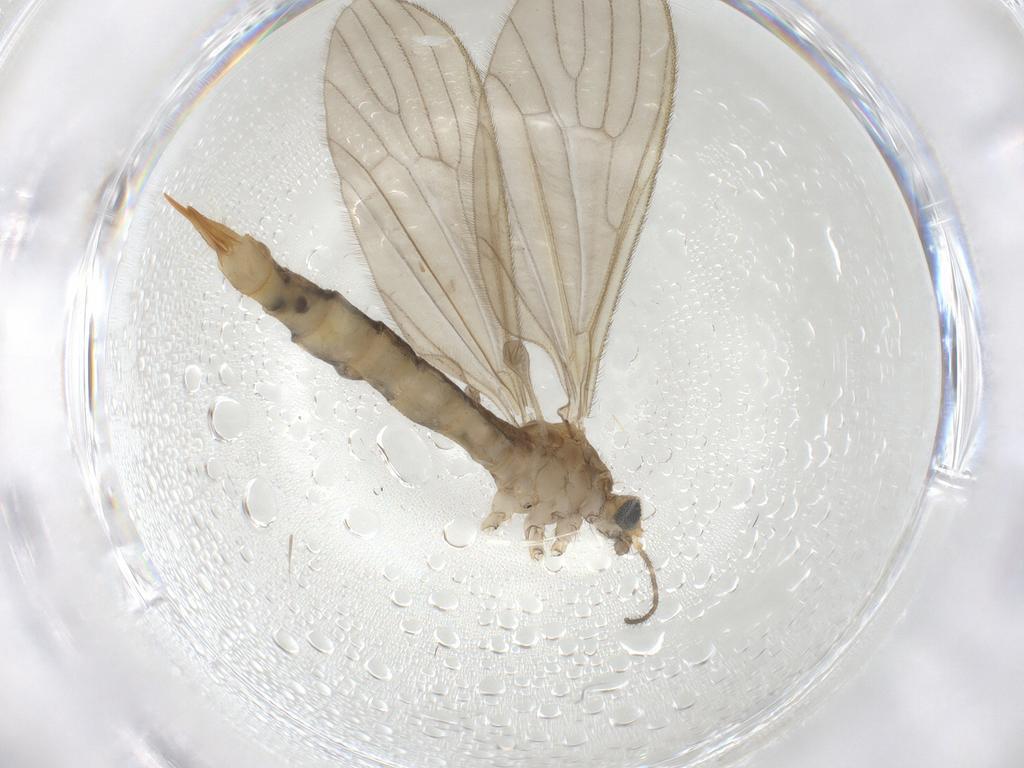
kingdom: Animalia
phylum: Arthropoda
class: Insecta
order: Diptera
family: Limoniidae
